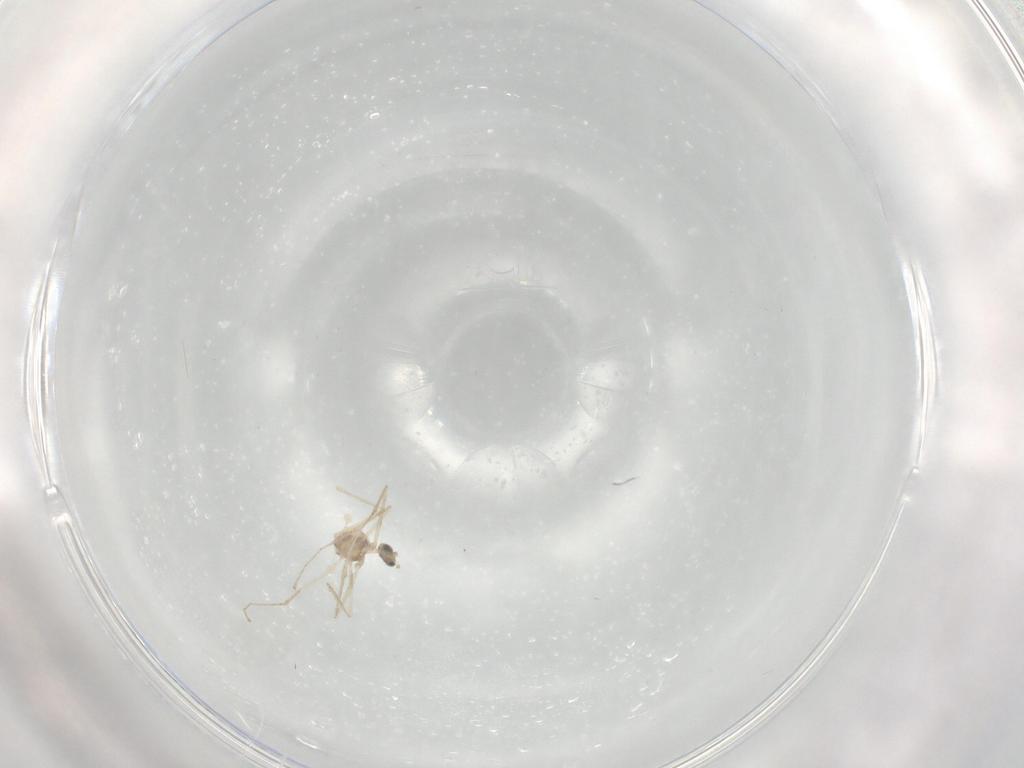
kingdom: Animalia
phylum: Arthropoda
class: Insecta
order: Diptera
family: Cecidomyiidae
